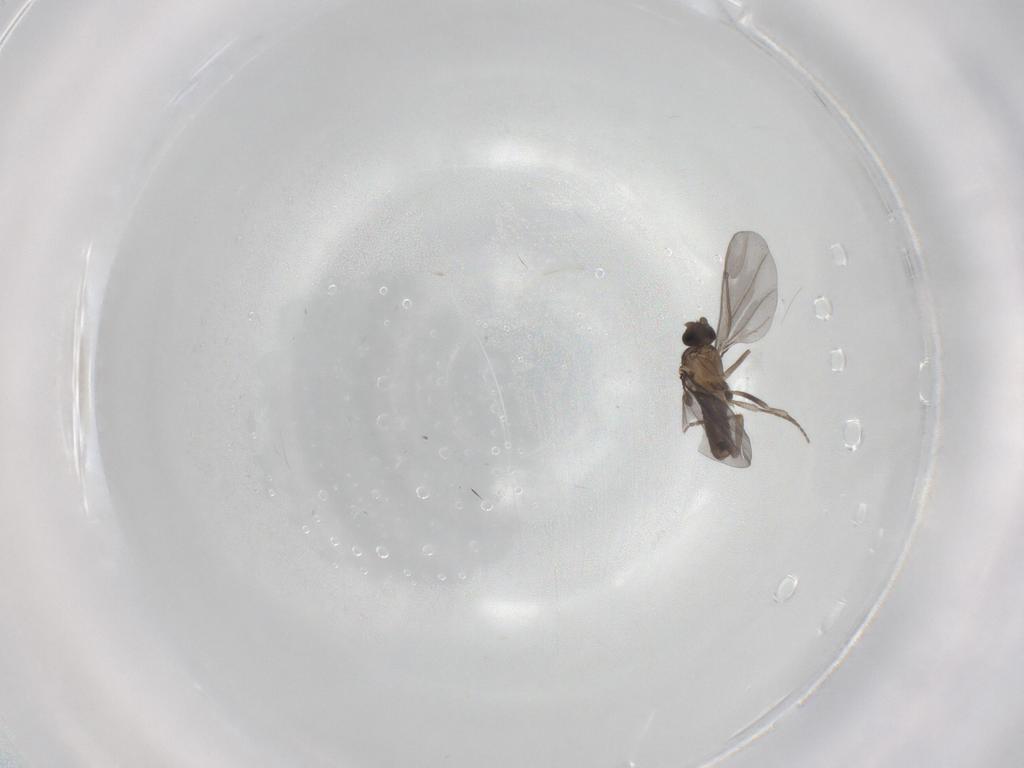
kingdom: Animalia
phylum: Arthropoda
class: Insecta
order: Diptera
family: Phoridae
